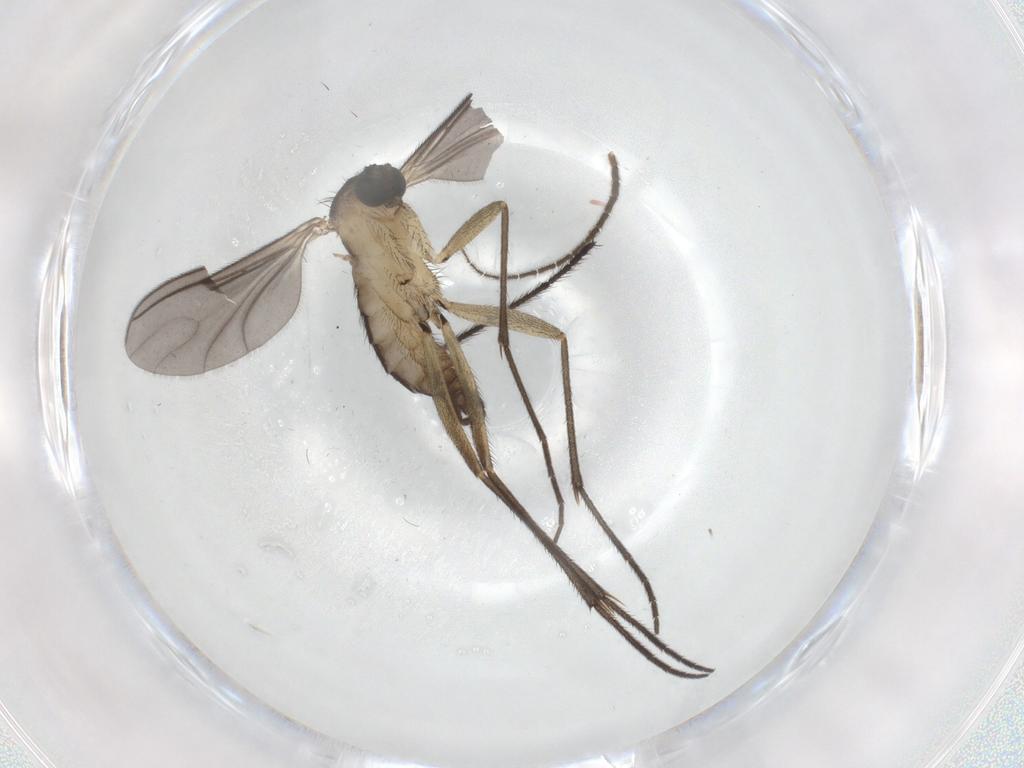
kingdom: Animalia
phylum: Arthropoda
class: Insecta
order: Diptera
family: Sciaridae
